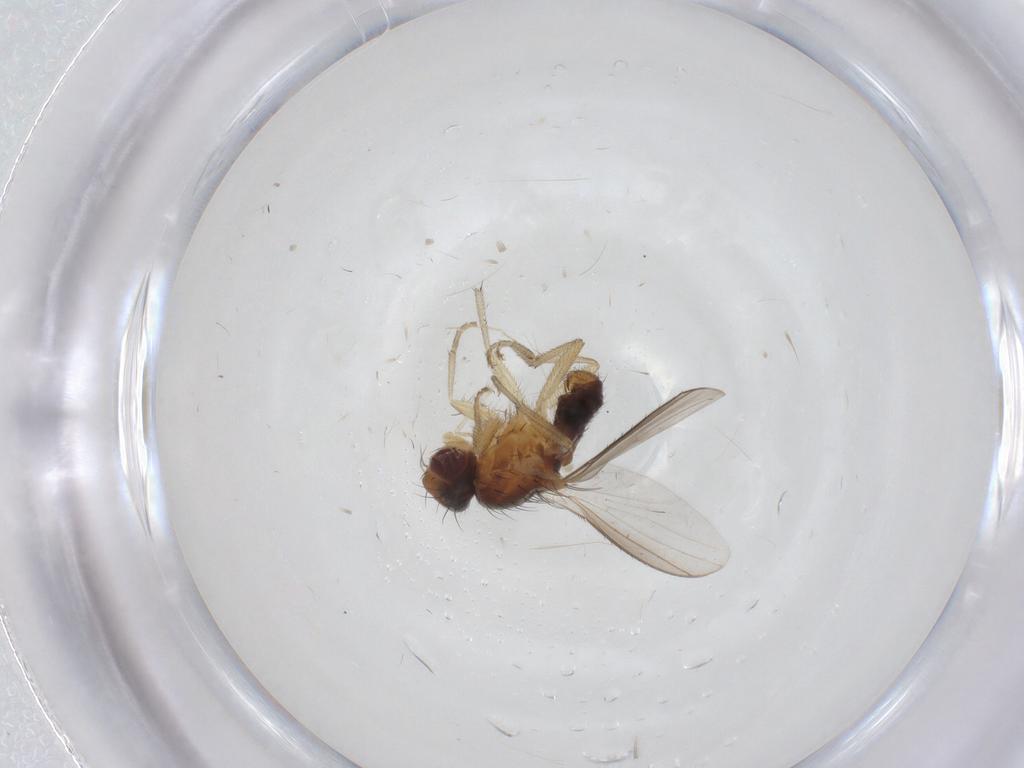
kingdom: Animalia
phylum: Arthropoda
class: Insecta
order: Diptera
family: Heleomyzidae
